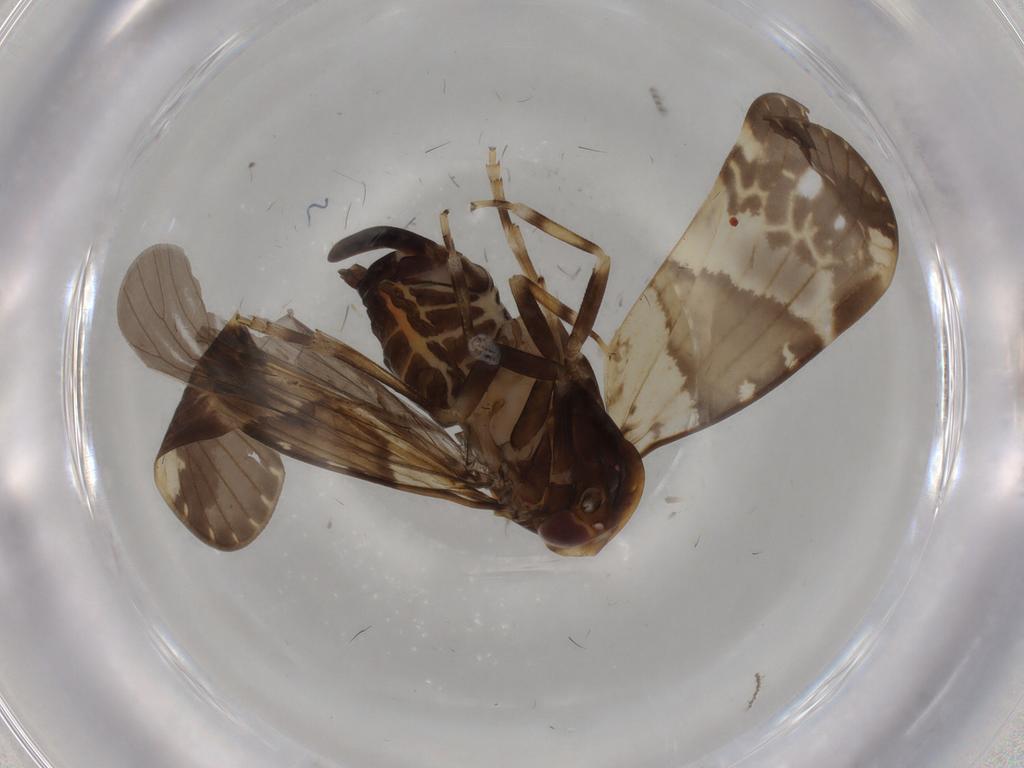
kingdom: Animalia
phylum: Arthropoda
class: Insecta
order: Hemiptera
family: Cixiidae
